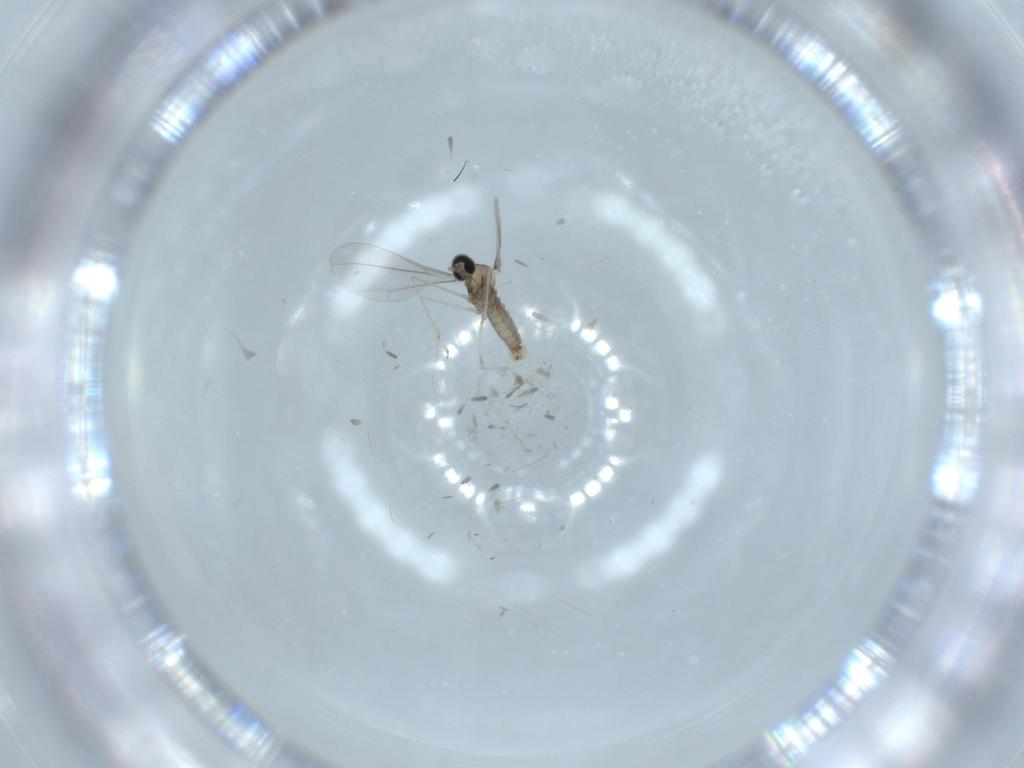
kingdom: Animalia
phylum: Arthropoda
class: Insecta
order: Diptera
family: Cecidomyiidae
